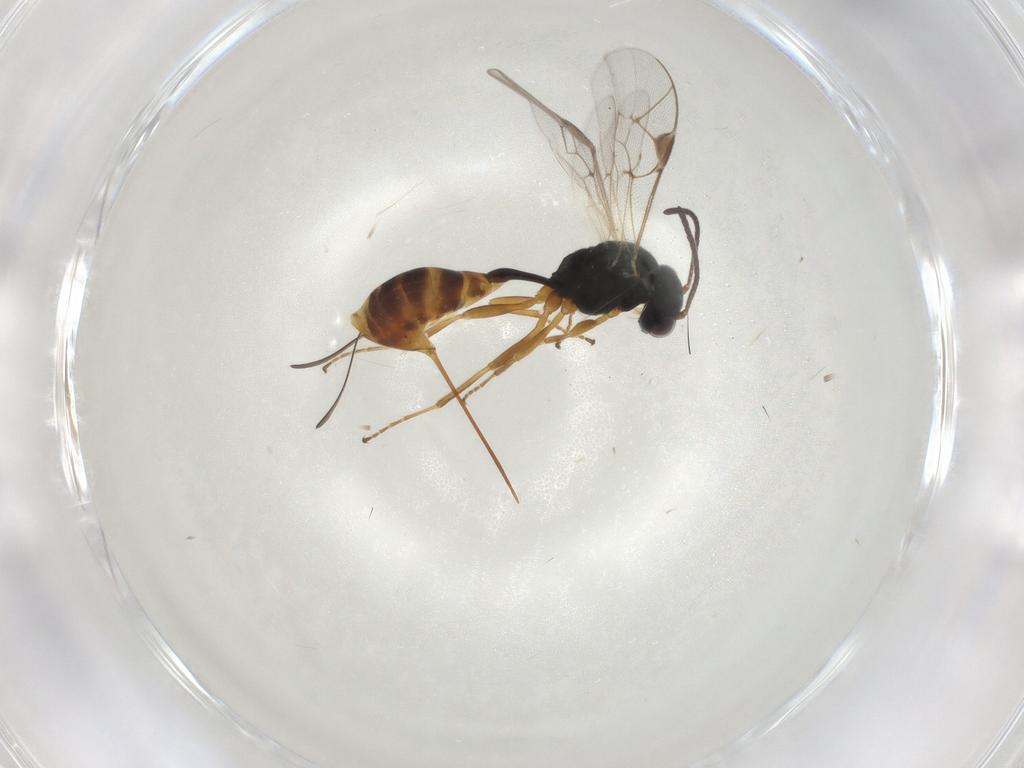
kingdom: Animalia
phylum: Arthropoda
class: Insecta
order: Hymenoptera
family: Ichneumonidae
